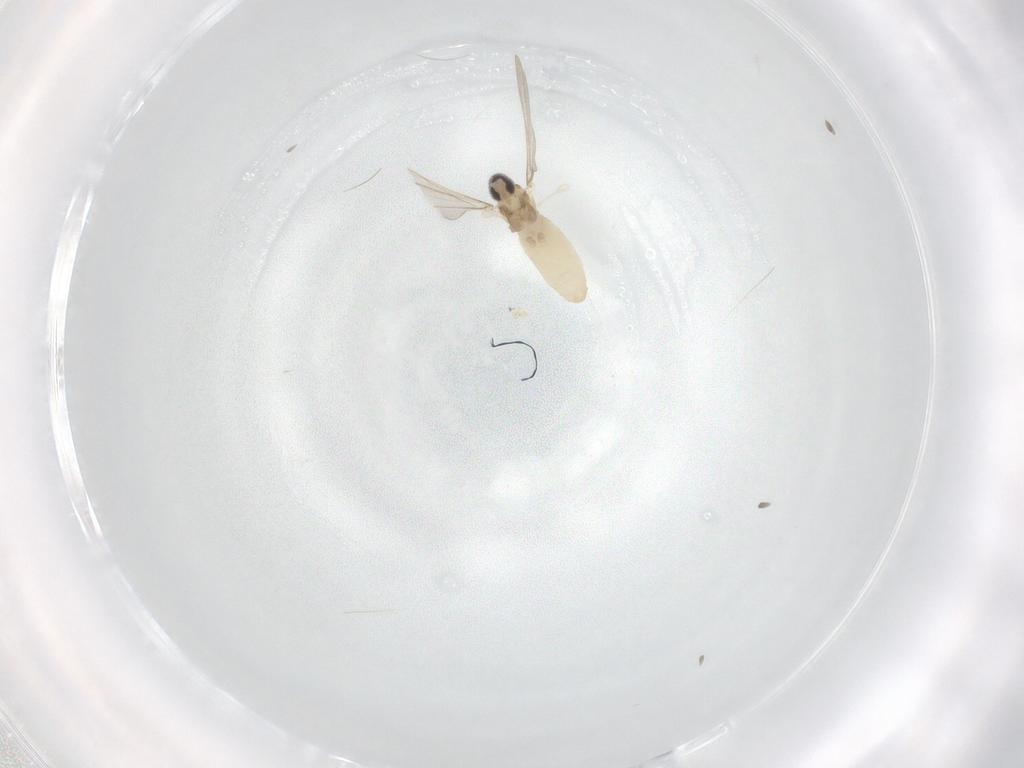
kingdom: Animalia
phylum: Arthropoda
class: Insecta
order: Diptera
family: Cecidomyiidae
